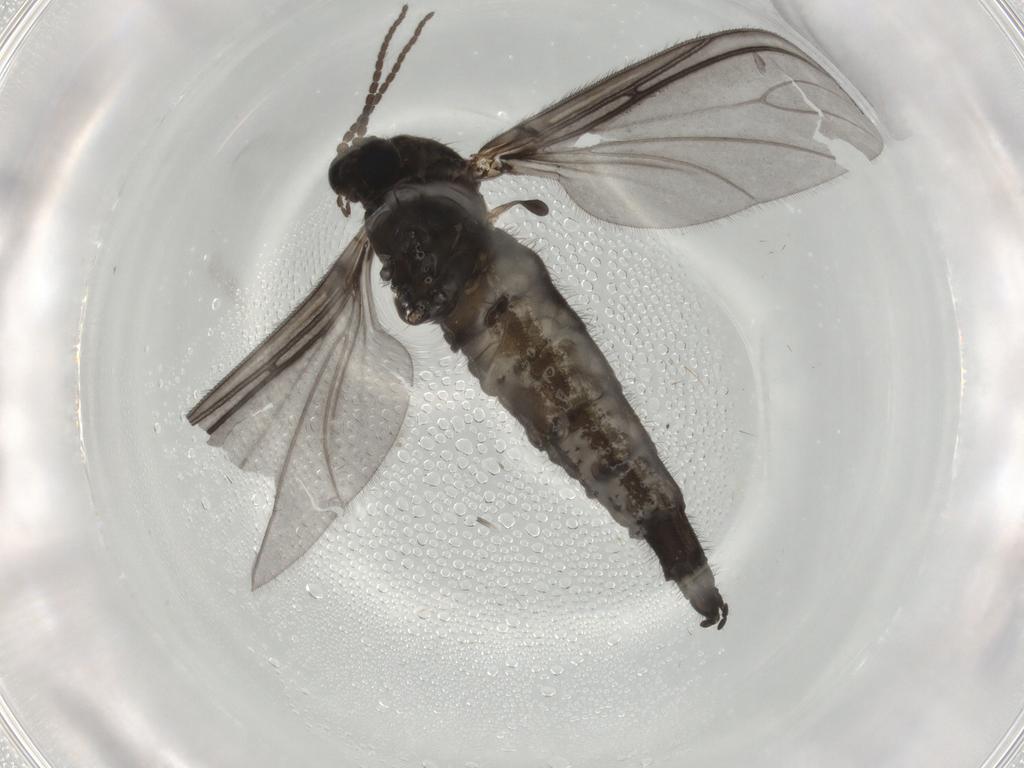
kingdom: Animalia
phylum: Arthropoda
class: Insecta
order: Diptera
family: Sciaridae
